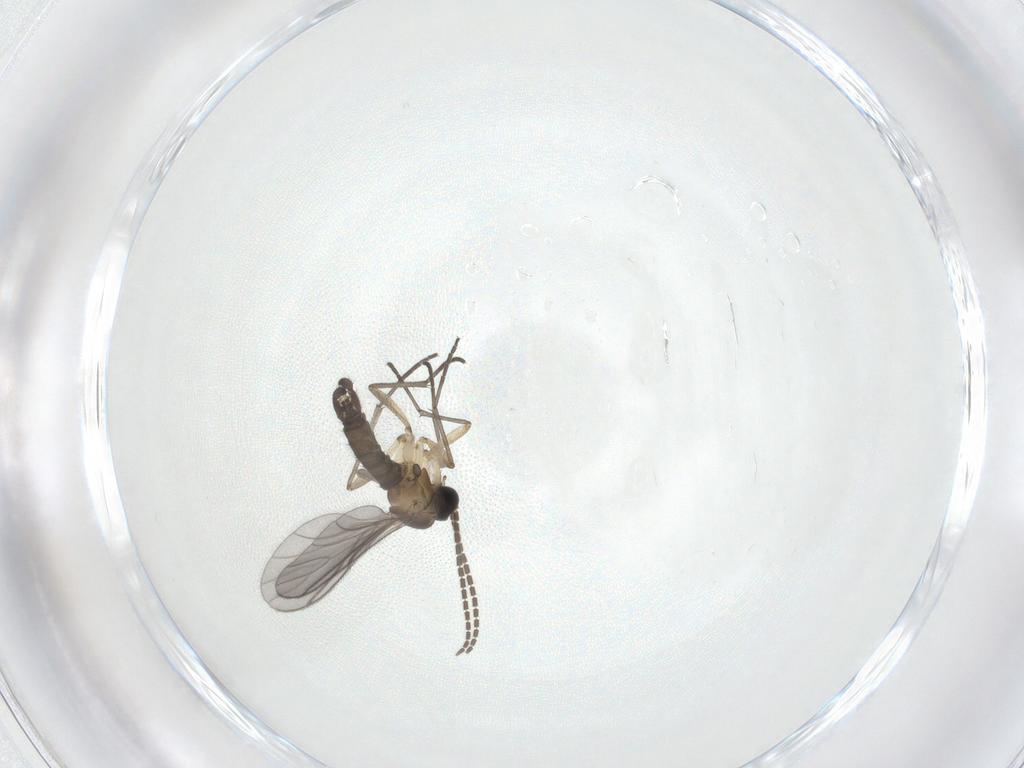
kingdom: Animalia
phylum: Arthropoda
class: Insecta
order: Diptera
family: Sciaridae
